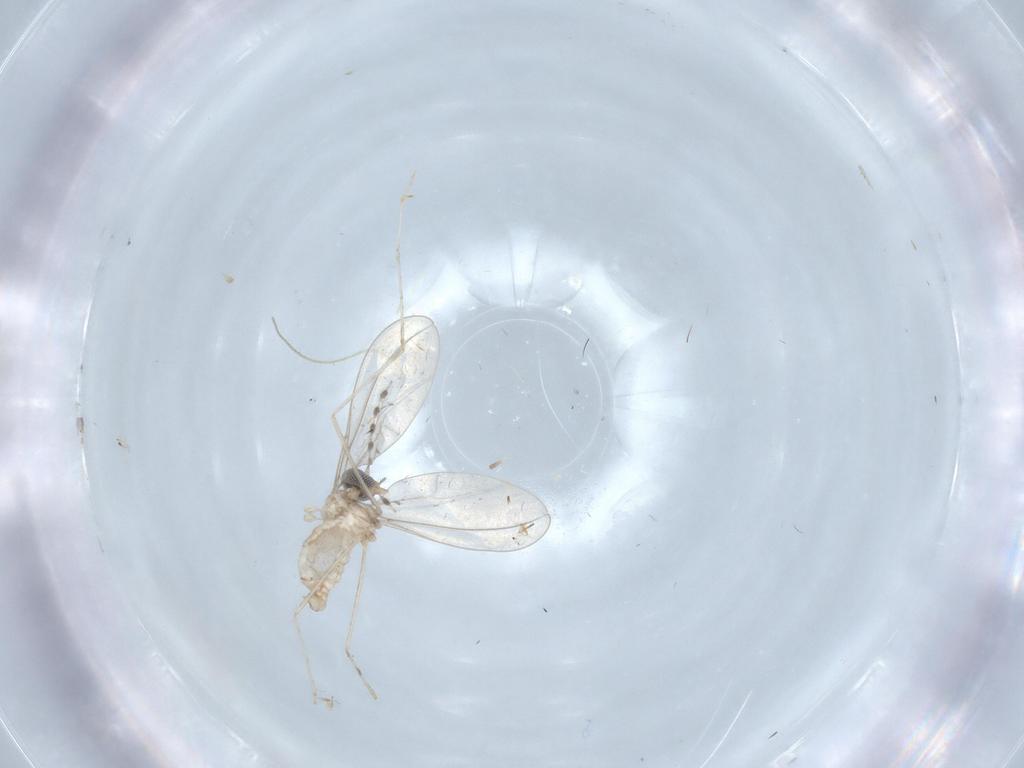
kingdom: Animalia
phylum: Arthropoda
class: Insecta
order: Diptera
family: Cecidomyiidae
